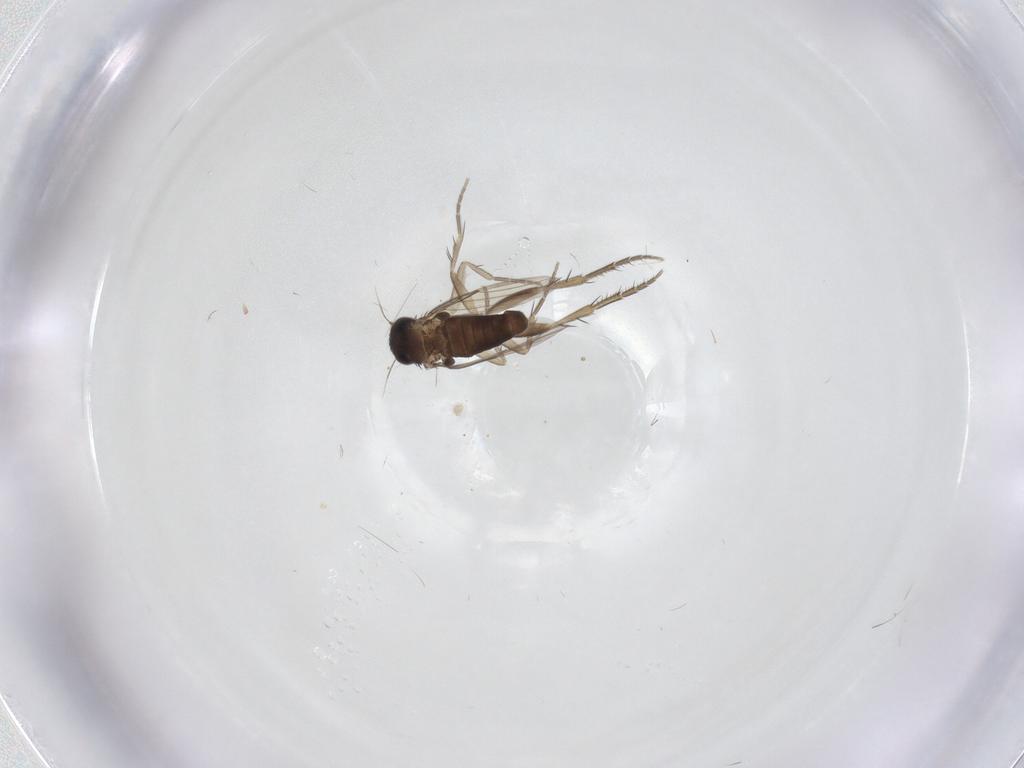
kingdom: Animalia
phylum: Arthropoda
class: Insecta
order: Diptera
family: Phoridae
